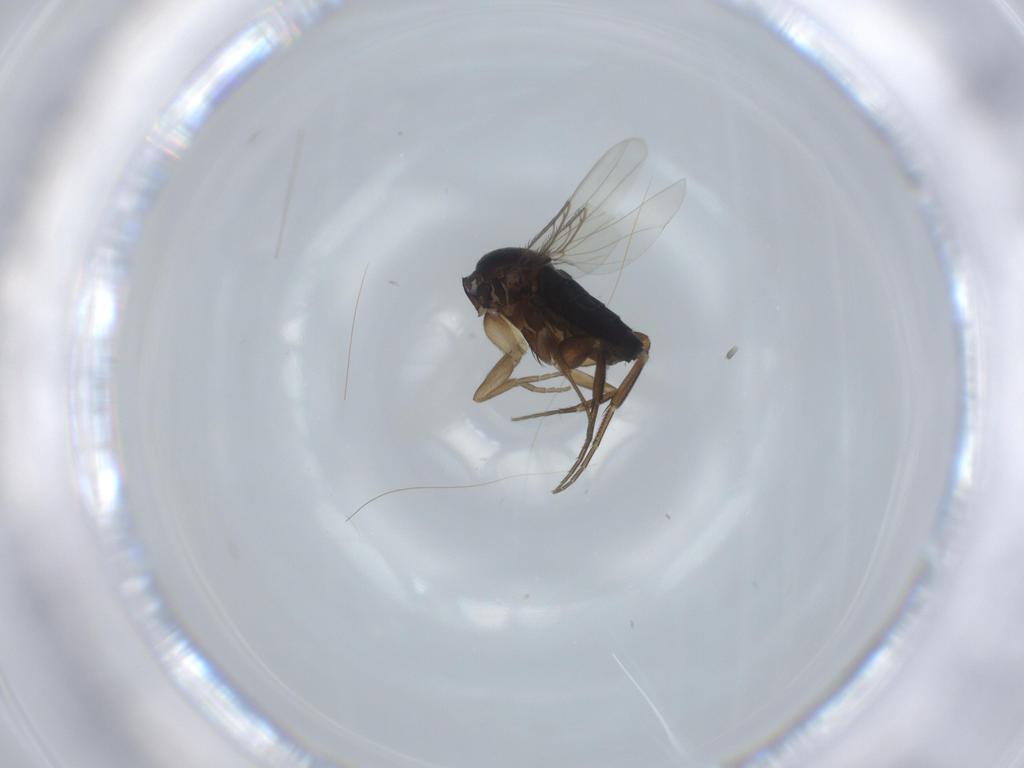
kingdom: Animalia
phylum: Arthropoda
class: Insecta
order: Diptera
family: Phoridae
